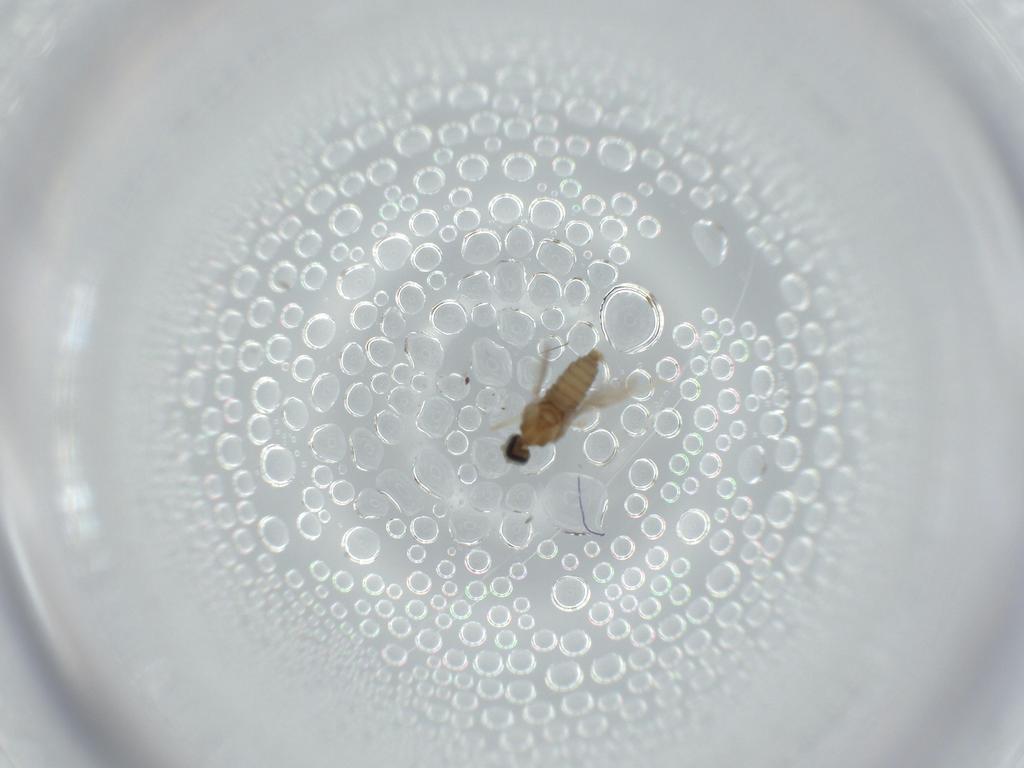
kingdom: Animalia
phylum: Arthropoda
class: Insecta
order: Diptera
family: Cecidomyiidae
